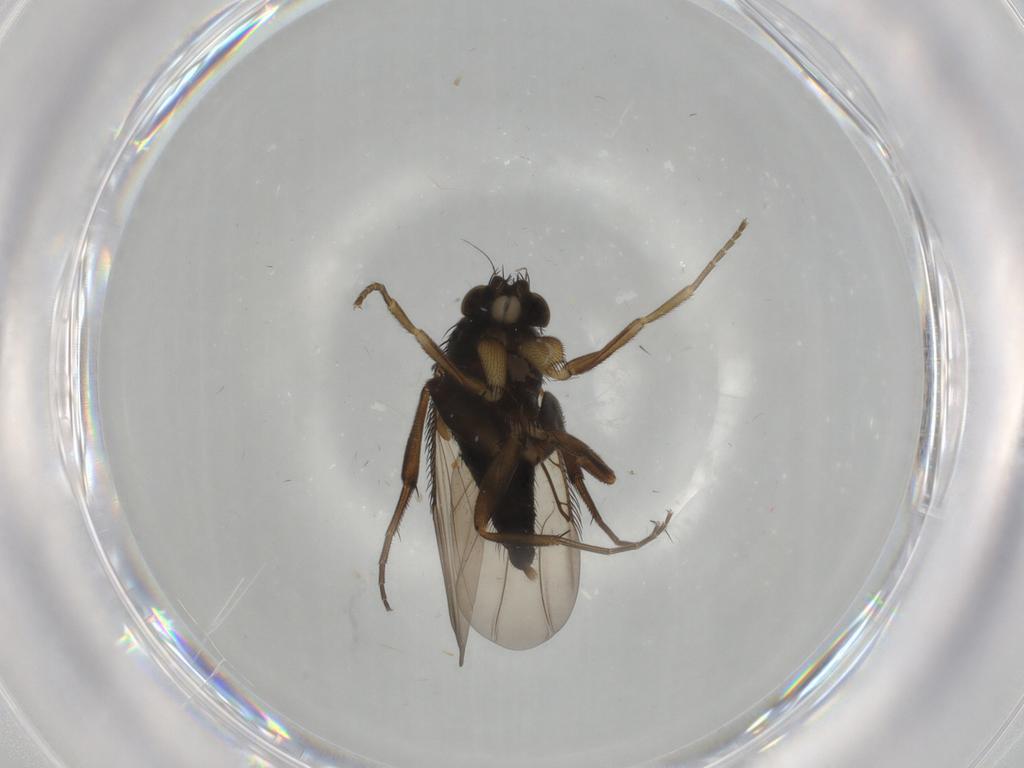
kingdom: Animalia
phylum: Arthropoda
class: Insecta
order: Diptera
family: Phoridae
